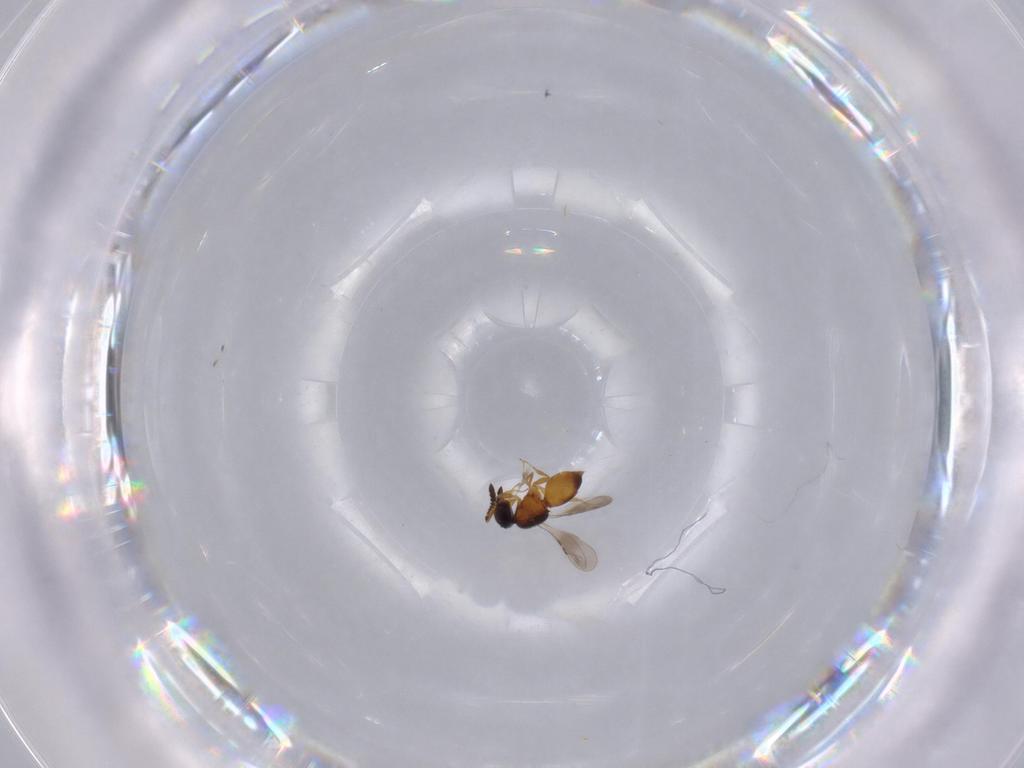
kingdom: Animalia
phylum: Arthropoda
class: Insecta
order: Hymenoptera
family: Ceraphronidae
